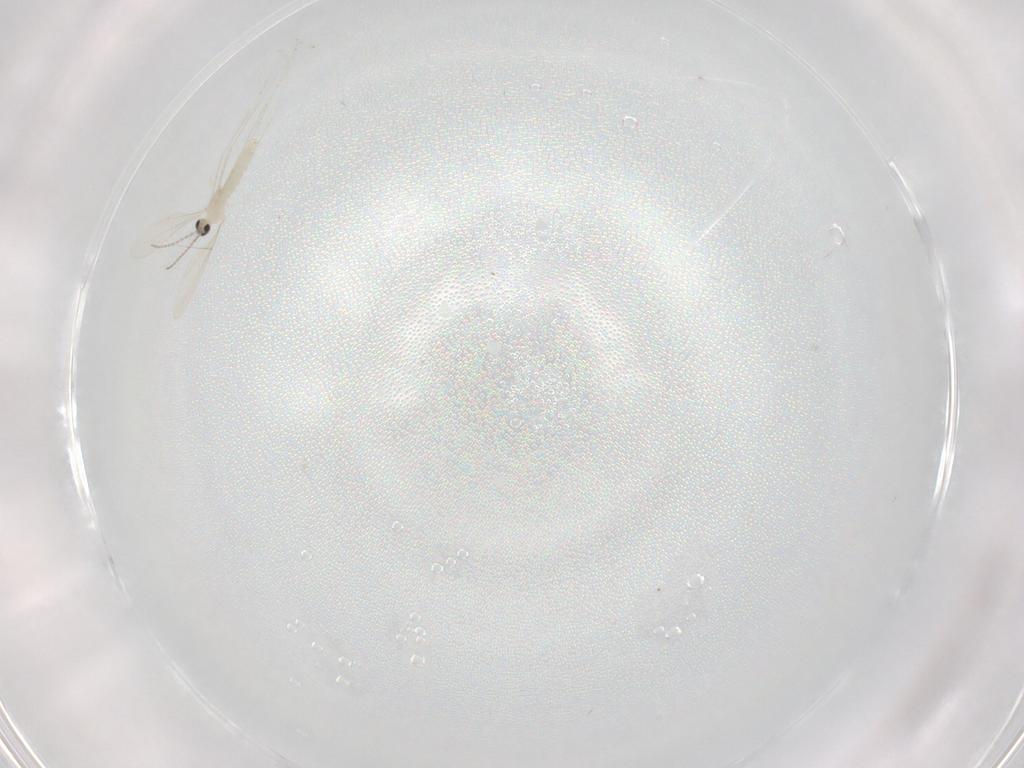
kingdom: Animalia
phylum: Arthropoda
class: Insecta
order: Diptera
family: Cecidomyiidae
